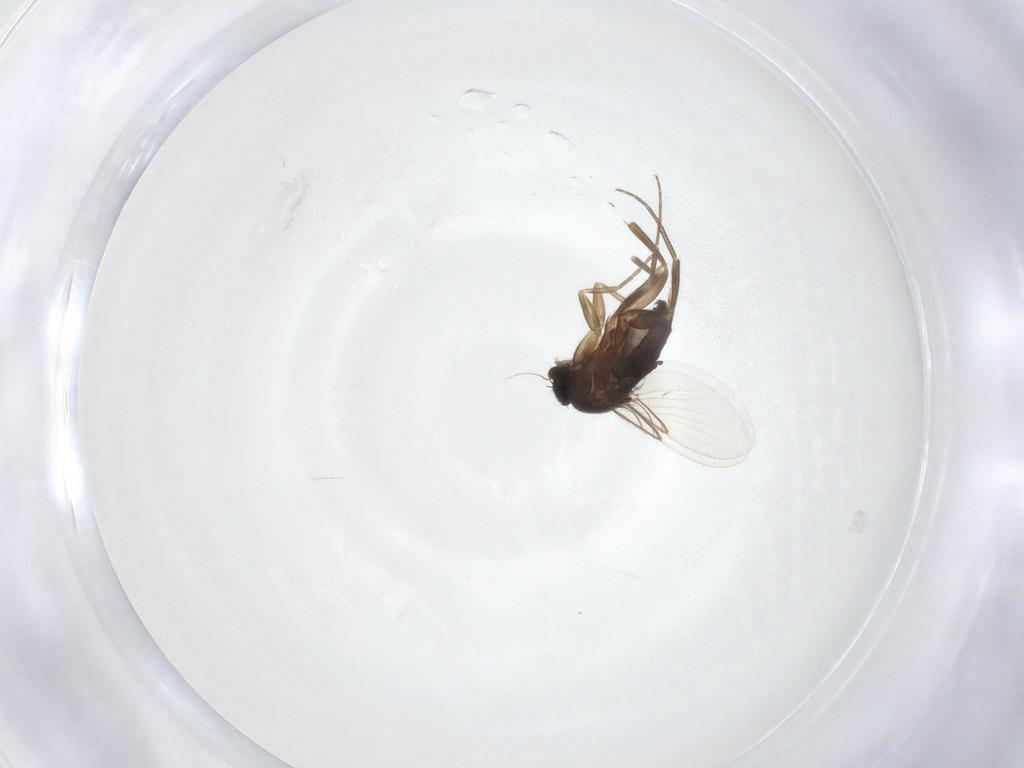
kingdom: Animalia
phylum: Arthropoda
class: Insecta
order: Diptera
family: Phoridae
